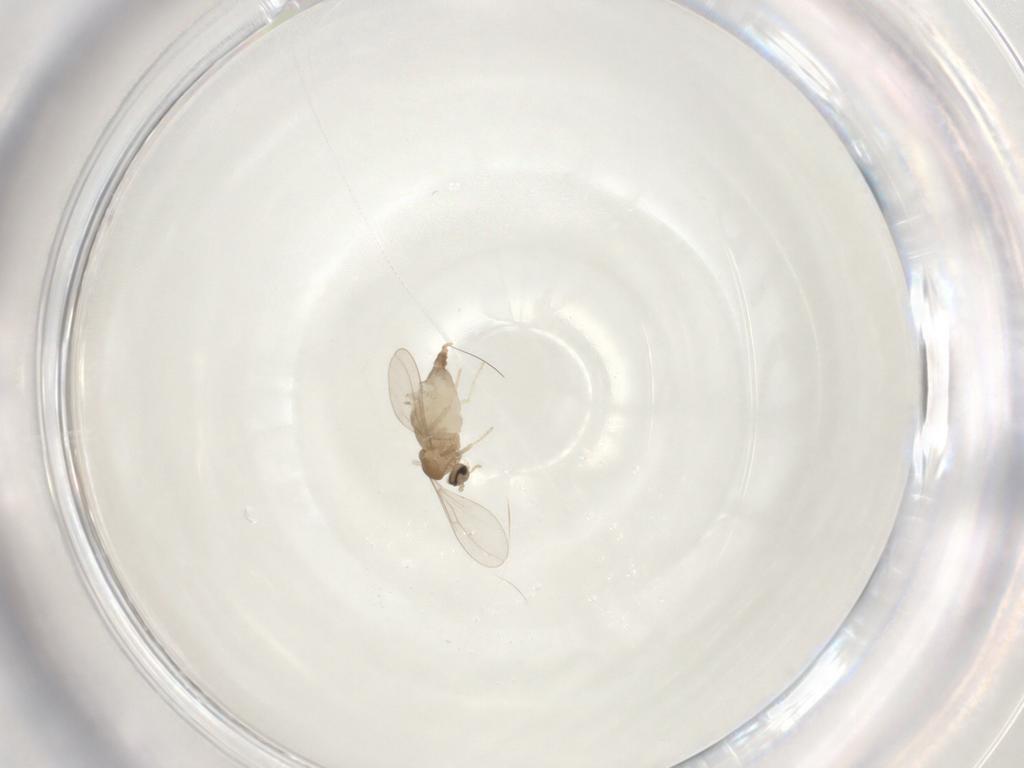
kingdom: Animalia
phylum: Arthropoda
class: Insecta
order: Diptera
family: Cecidomyiidae
